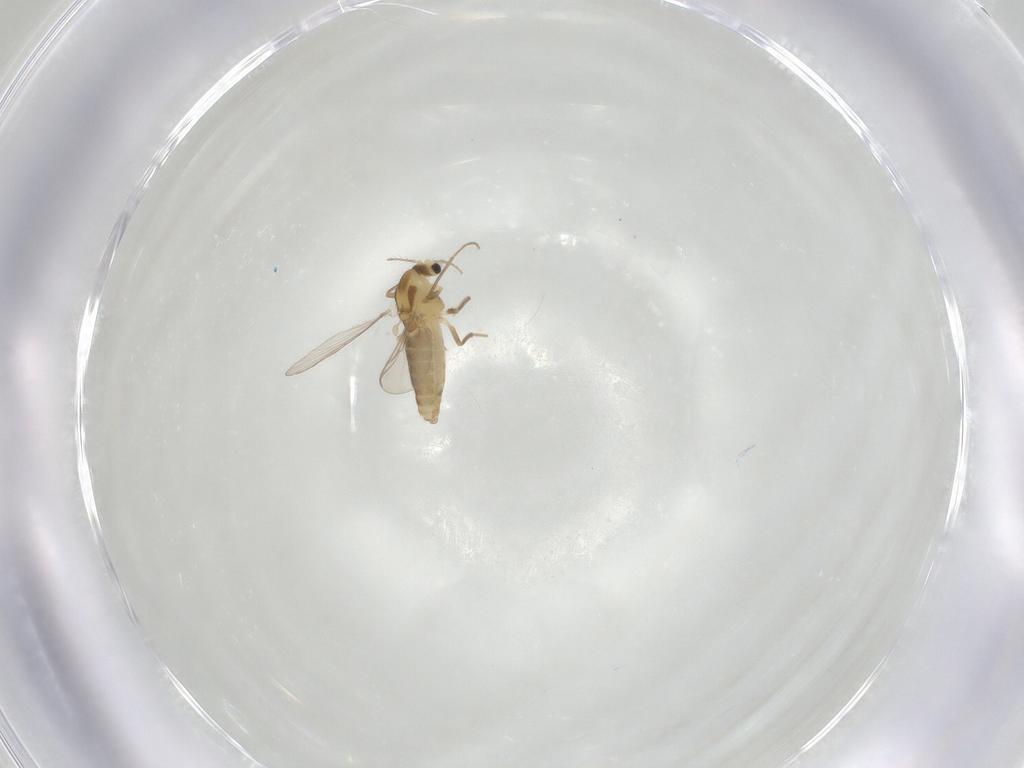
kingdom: Animalia
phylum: Arthropoda
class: Insecta
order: Diptera
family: Chironomidae
